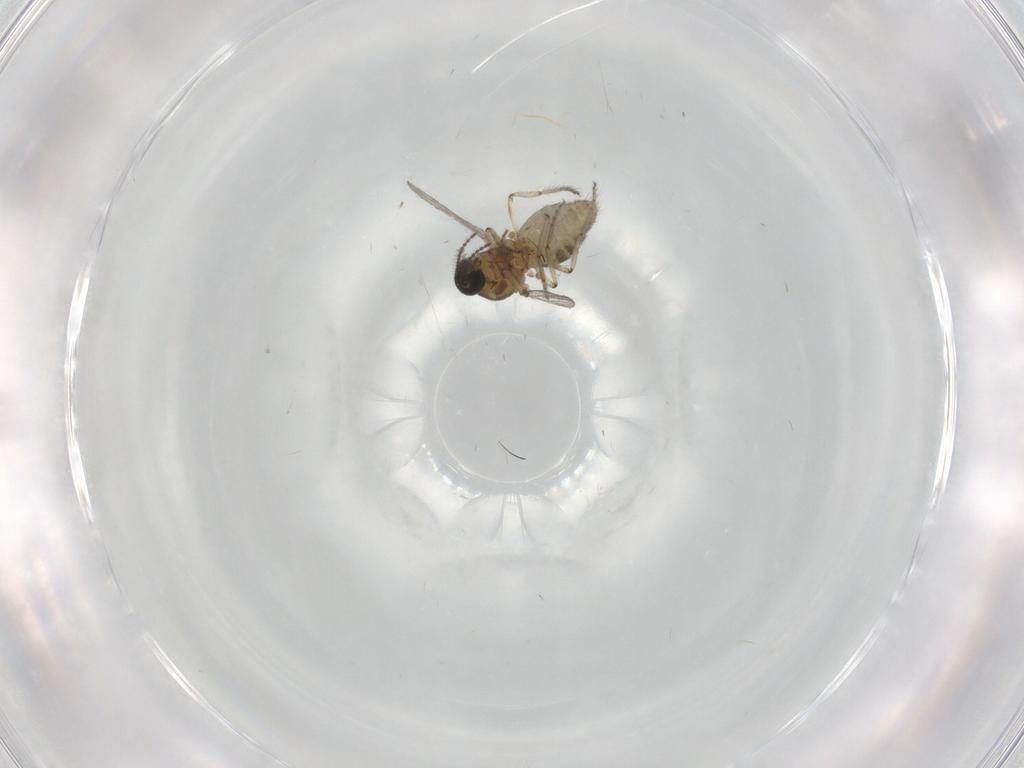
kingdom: Animalia
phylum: Arthropoda
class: Insecta
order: Diptera
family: Ceratopogonidae
